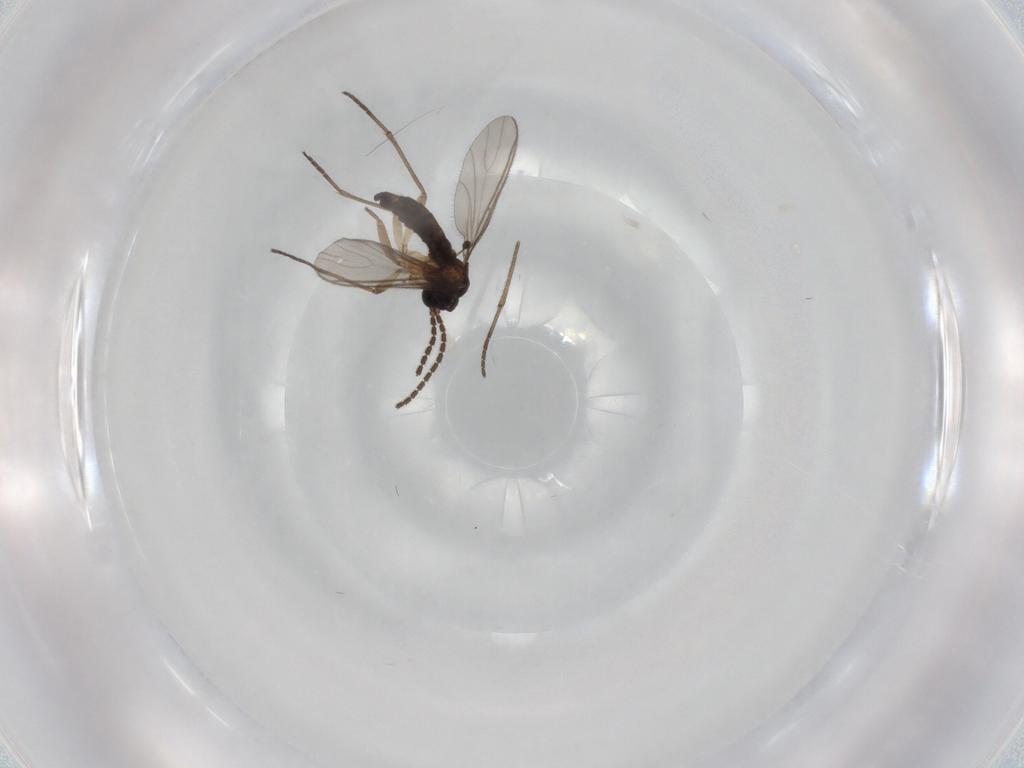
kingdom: Animalia
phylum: Arthropoda
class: Insecta
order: Diptera
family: Sciaridae
